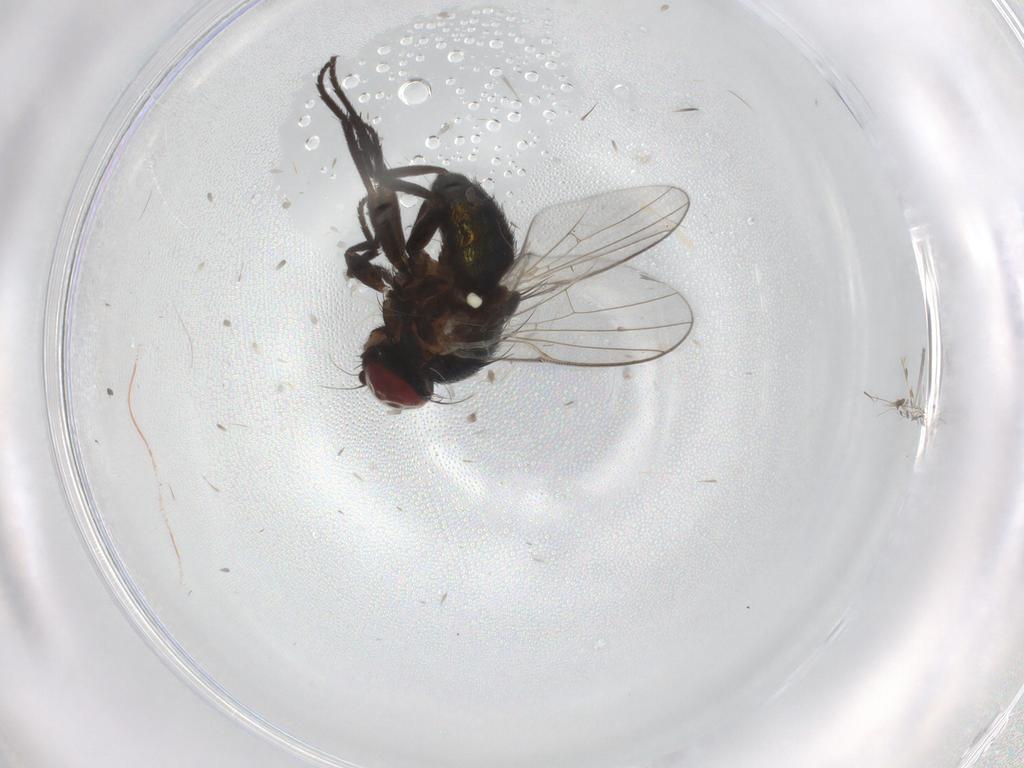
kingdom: Animalia
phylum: Arthropoda
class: Insecta
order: Diptera
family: Agromyzidae
